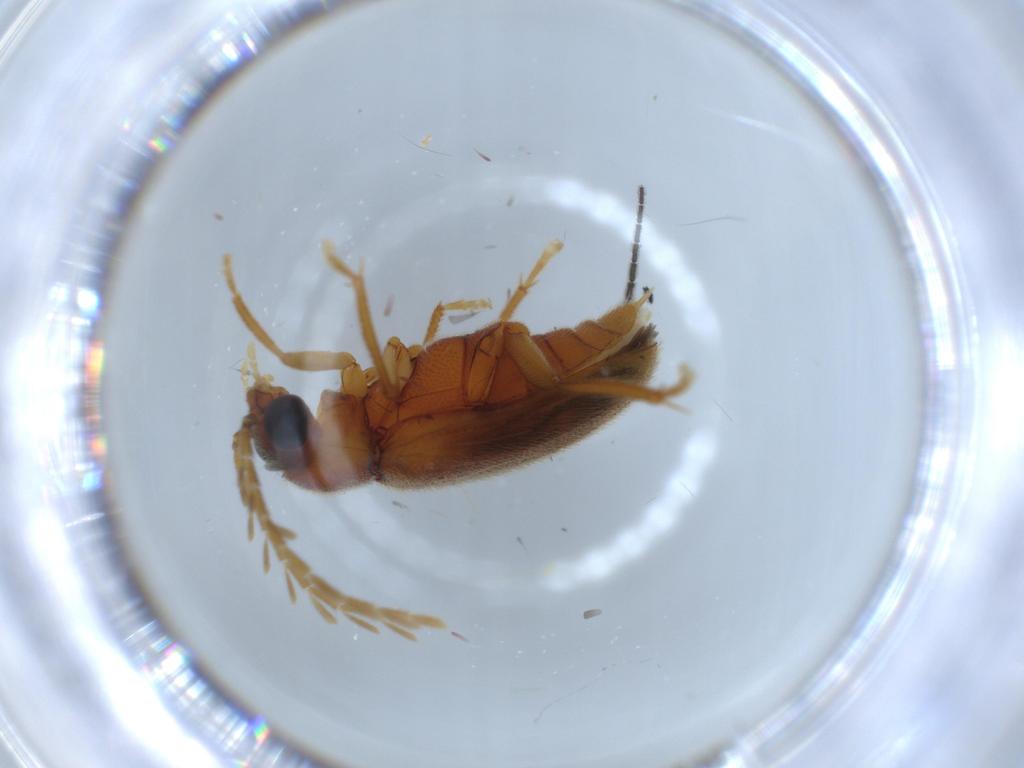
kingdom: Animalia
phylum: Arthropoda
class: Insecta
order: Coleoptera
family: Ptilodactylidae
